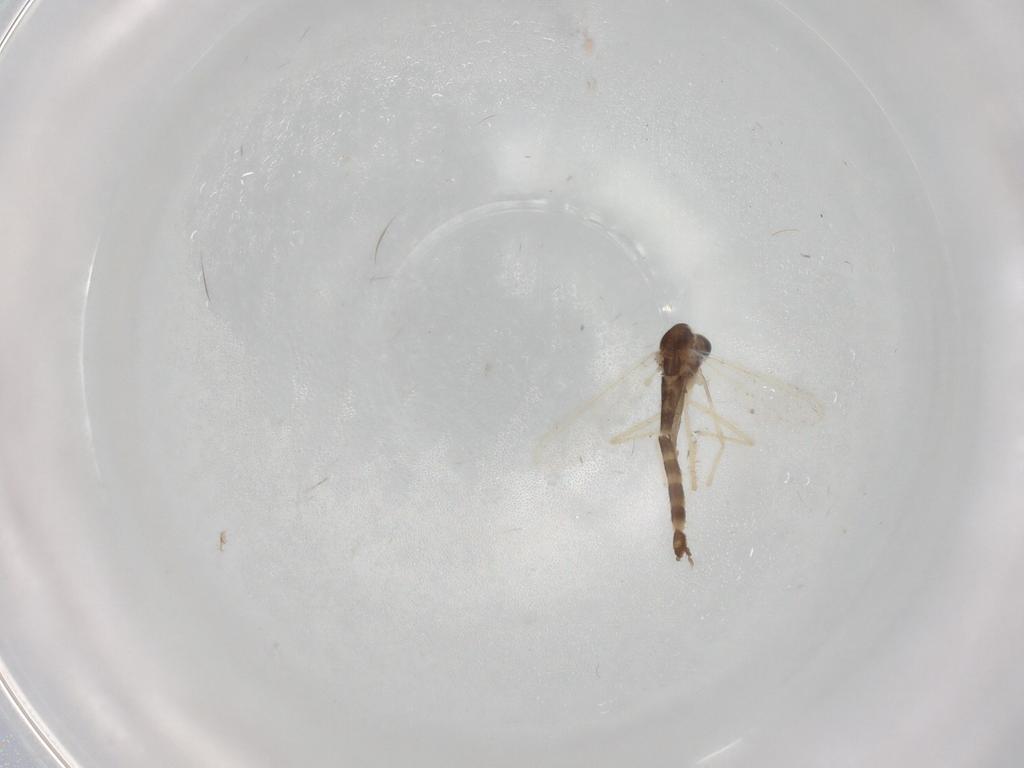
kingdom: Animalia
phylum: Arthropoda
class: Insecta
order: Diptera
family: Chironomidae
